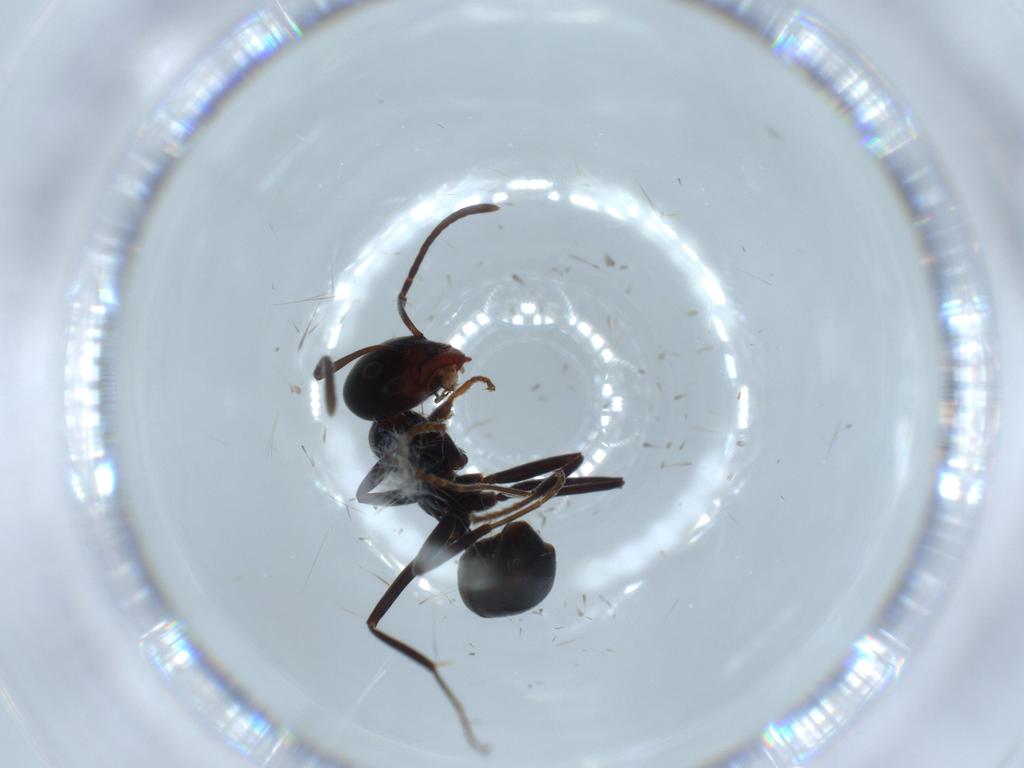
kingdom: Animalia
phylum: Arthropoda
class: Insecta
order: Hymenoptera
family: Formicidae
